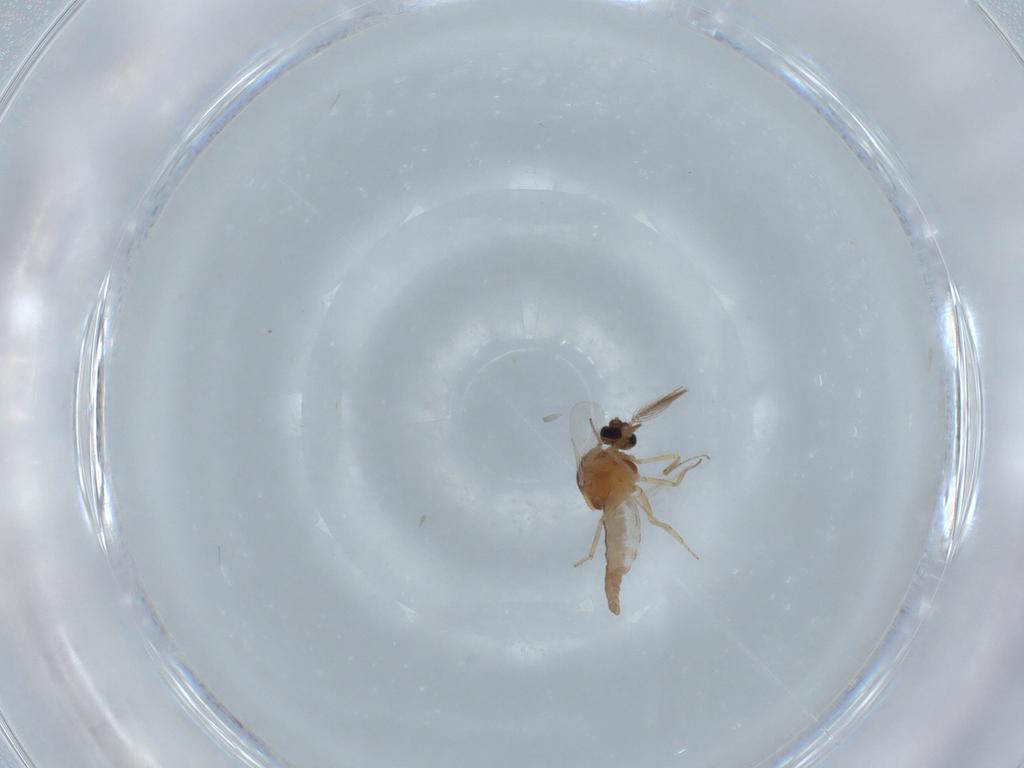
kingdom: Animalia
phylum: Arthropoda
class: Insecta
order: Diptera
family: Ceratopogonidae
